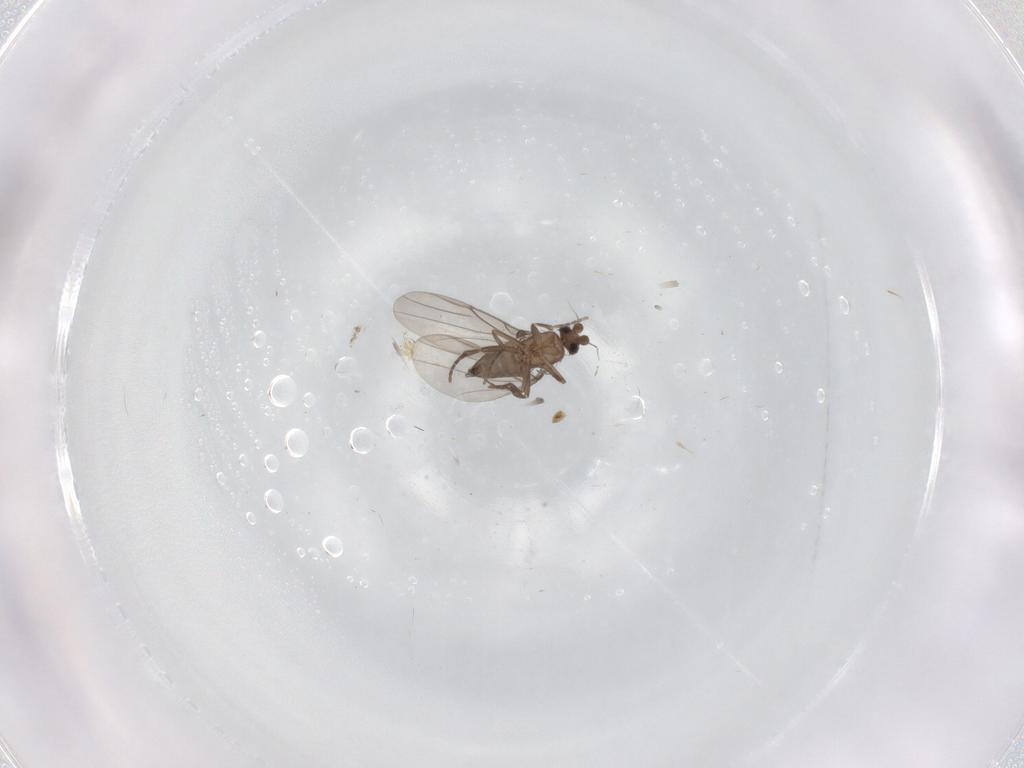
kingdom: Animalia
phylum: Arthropoda
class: Insecta
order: Diptera
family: Phoridae
